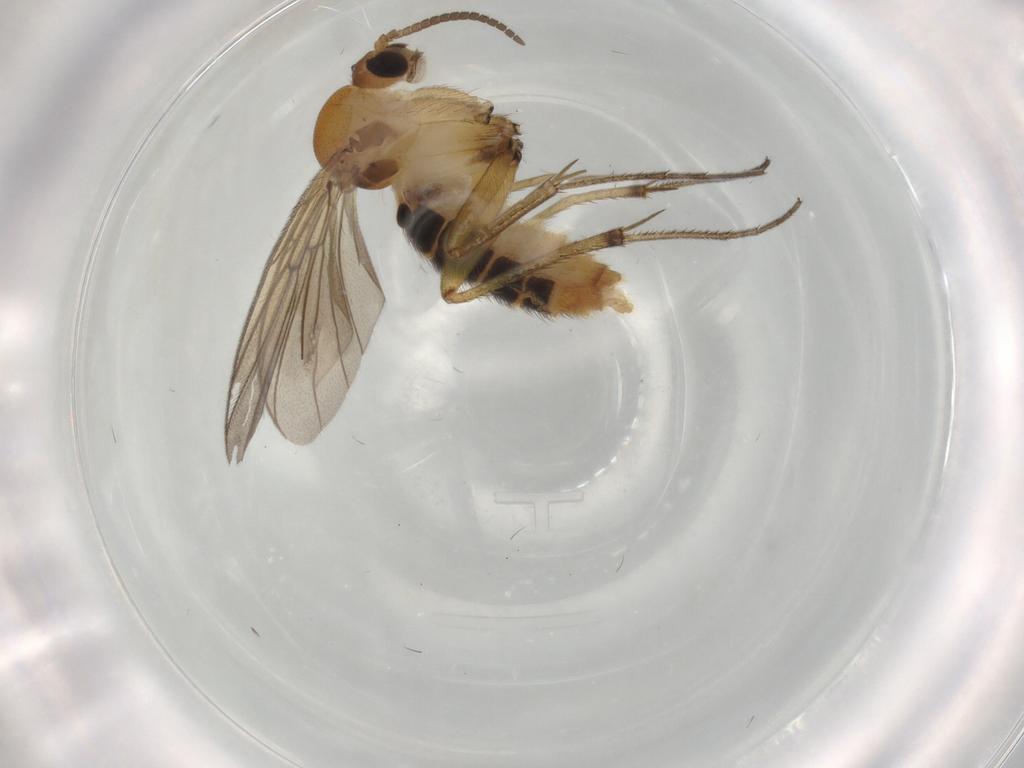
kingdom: Animalia
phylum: Arthropoda
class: Insecta
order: Diptera
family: Mycetophilidae
